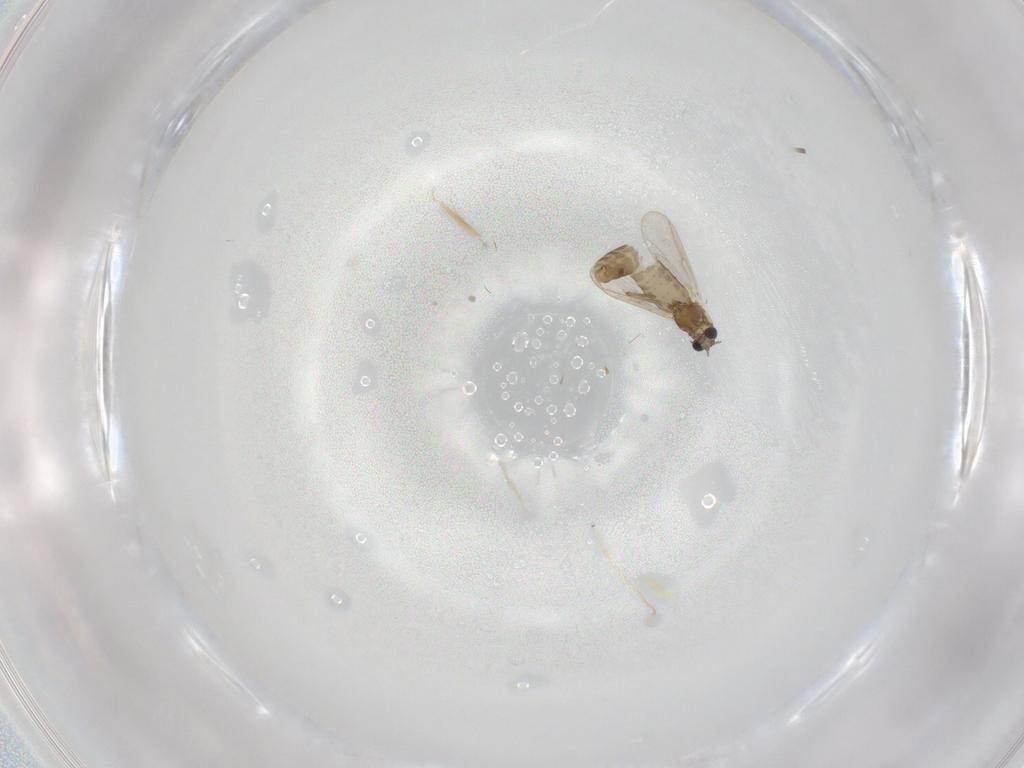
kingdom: Animalia
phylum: Arthropoda
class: Insecta
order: Diptera
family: Chironomidae
